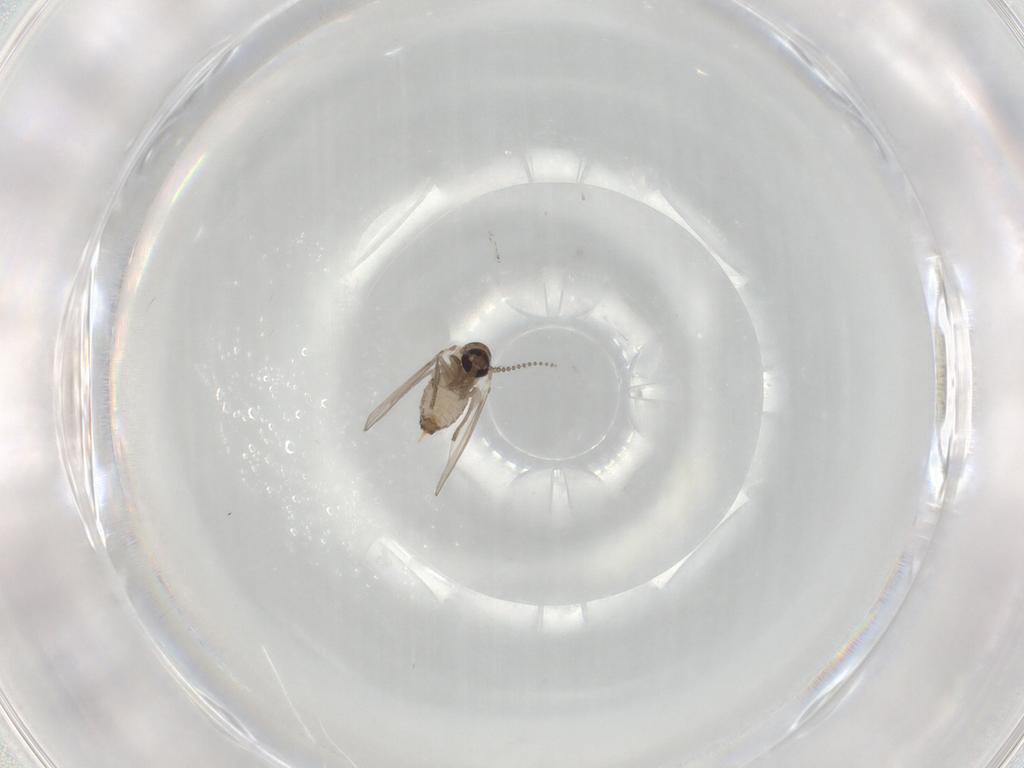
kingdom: Animalia
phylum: Arthropoda
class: Insecta
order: Diptera
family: Psychodidae
